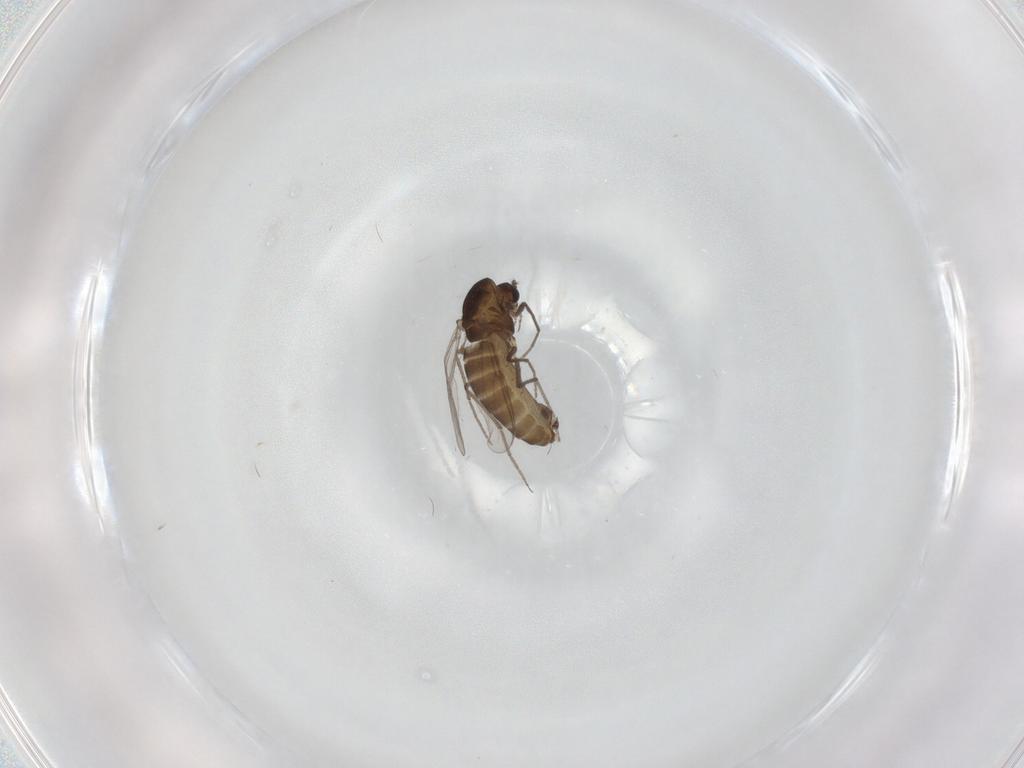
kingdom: Animalia
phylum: Arthropoda
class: Insecta
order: Diptera
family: Chironomidae
